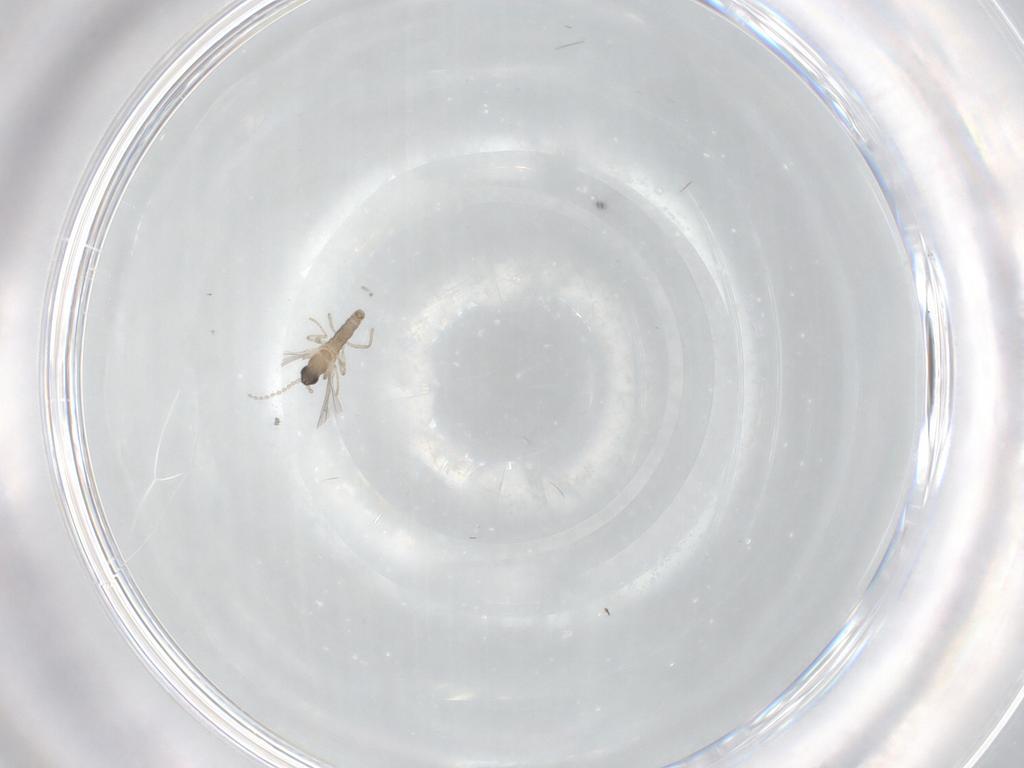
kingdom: Animalia
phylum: Arthropoda
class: Insecta
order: Diptera
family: Cecidomyiidae
